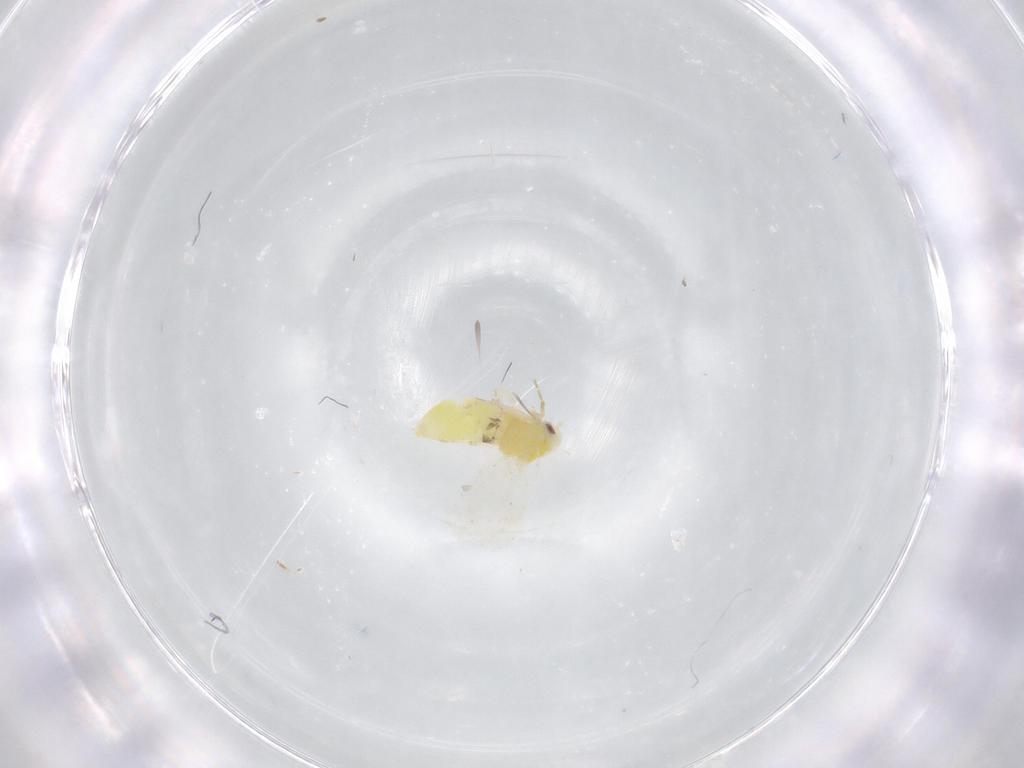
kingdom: Animalia
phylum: Arthropoda
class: Insecta
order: Hemiptera
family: Aleyrodidae
